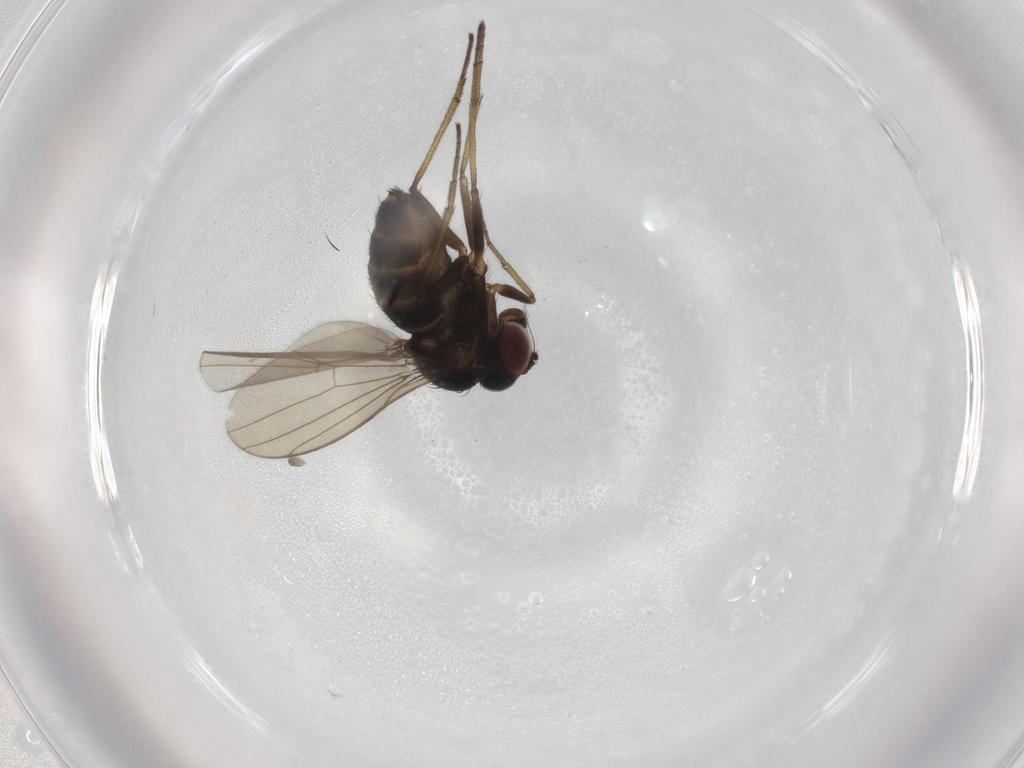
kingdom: Animalia
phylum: Arthropoda
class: Insecta
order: Diptera
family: Dolichopodidae
